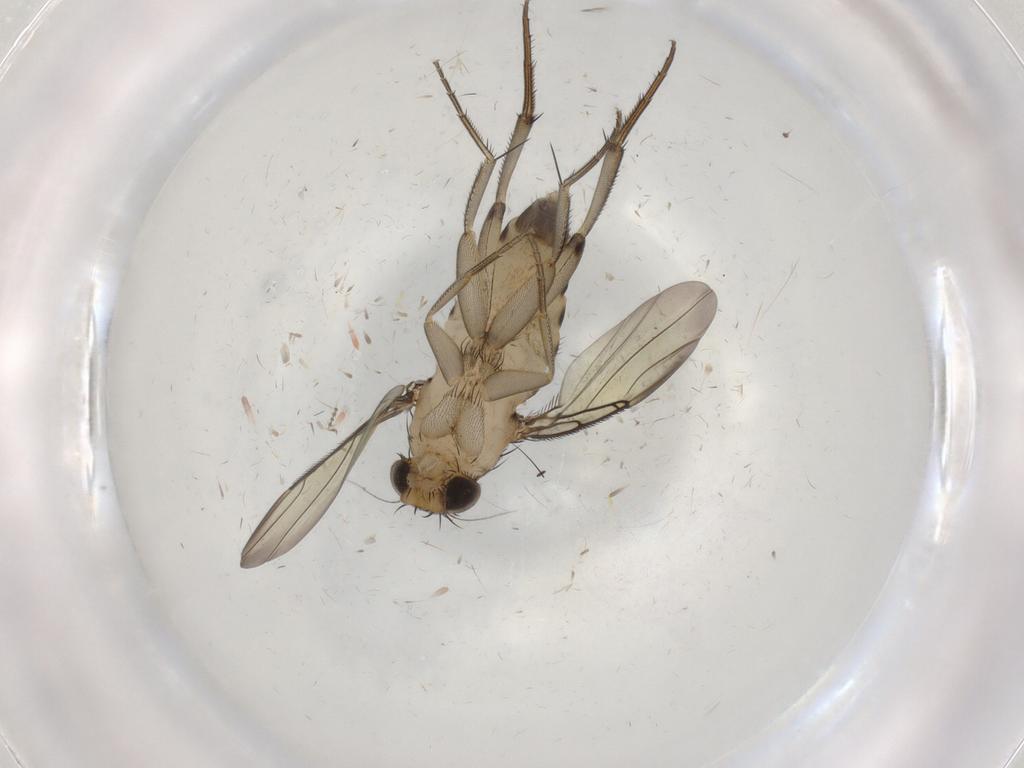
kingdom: Animalia
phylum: Arthropoda
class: Insecta
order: Diptera
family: Phoridae
